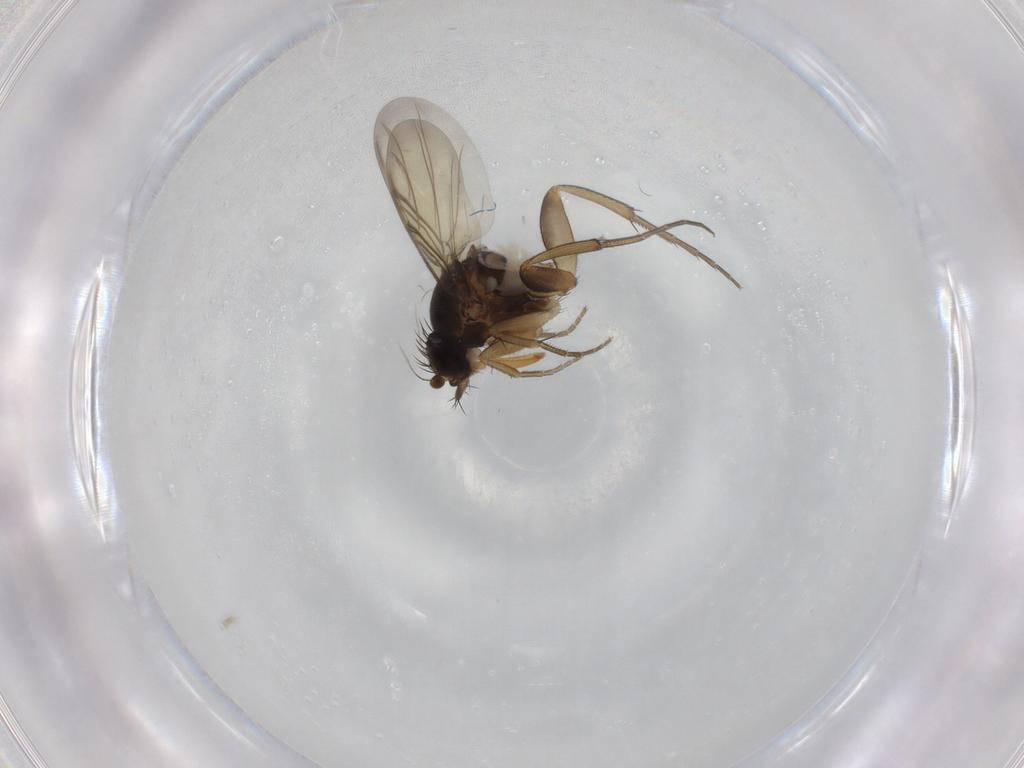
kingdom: Animalia
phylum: Arthropoda
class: Insecta
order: Diptera
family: Phoridae
